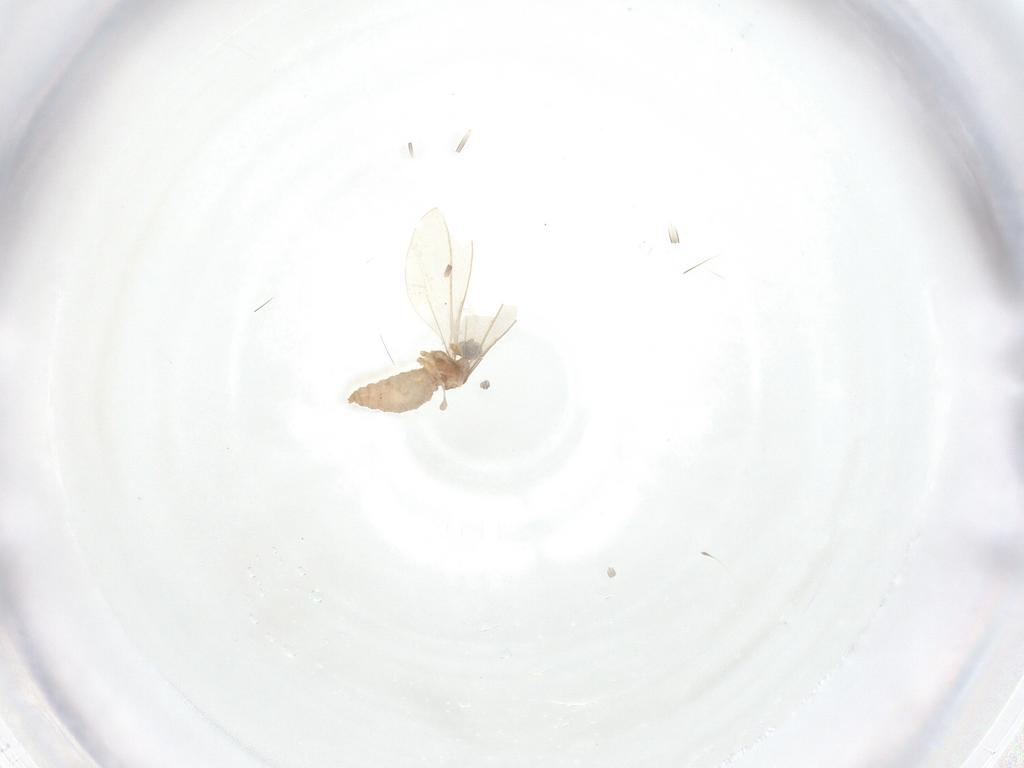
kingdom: Animalia
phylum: Arthropoda
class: Insecta
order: Diptera
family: Cecidomyiidae
